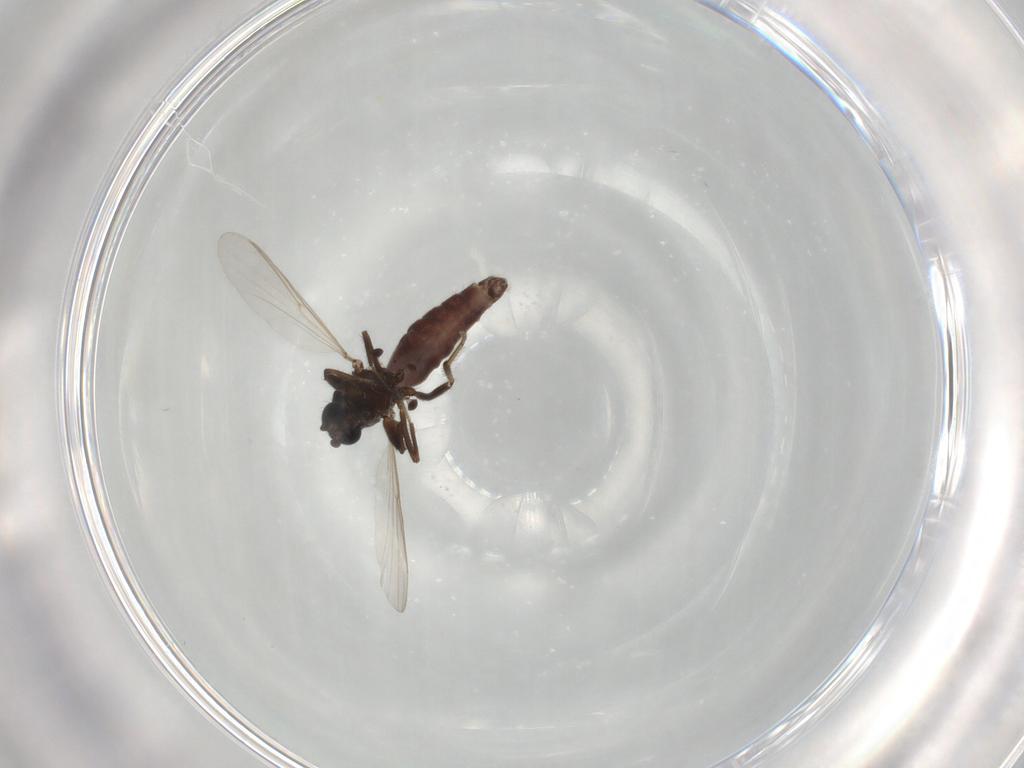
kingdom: Animalia
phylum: Arthropoda
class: Insecta
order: Diptera
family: Ceratopogonidae
